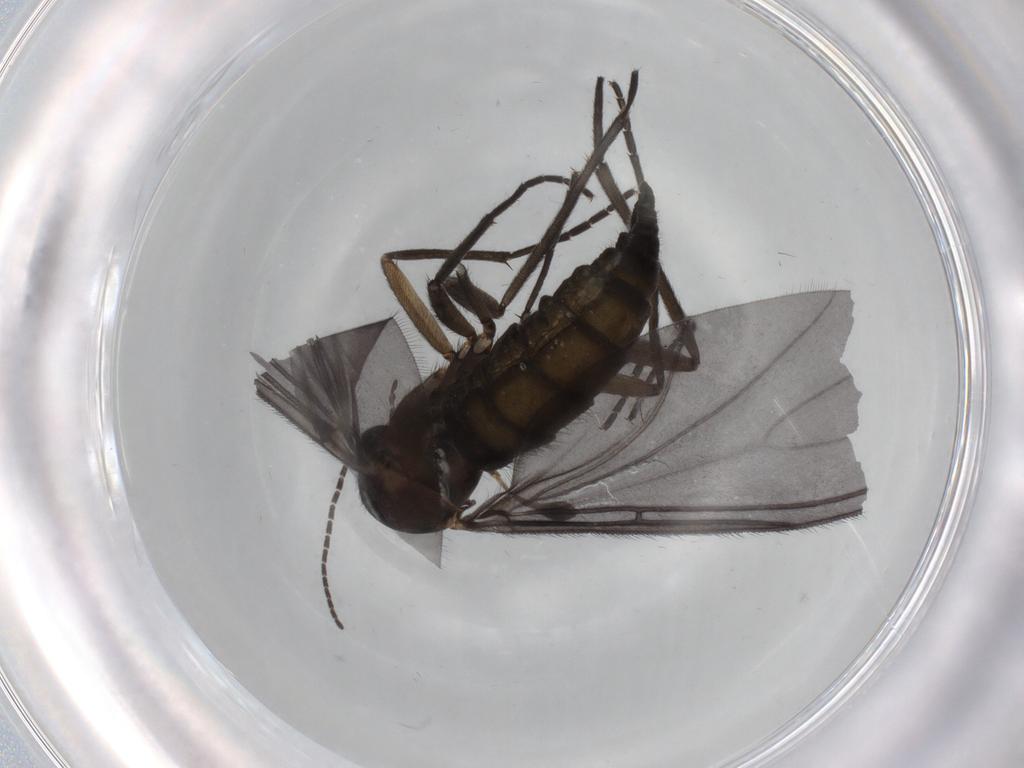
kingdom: Animalia
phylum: Arthropoda
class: Insecta
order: Diptera
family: Sciaridae
